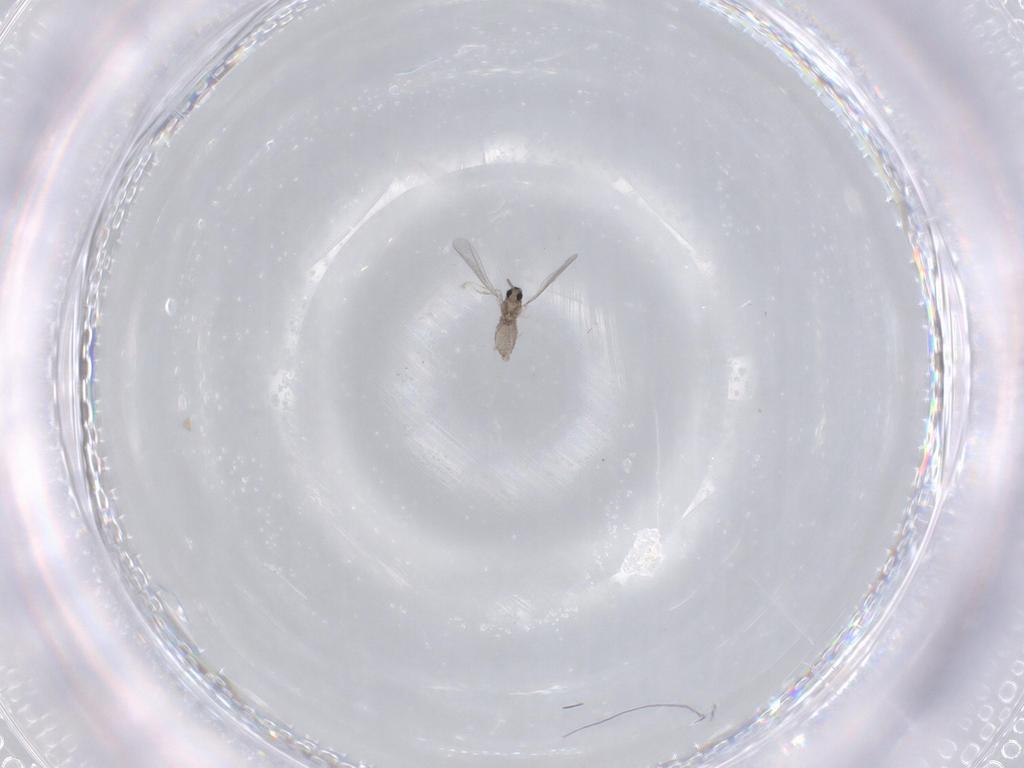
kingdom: Animalia
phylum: Arthropoda
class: Insecta
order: Diptera
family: Cecidomyiidae
